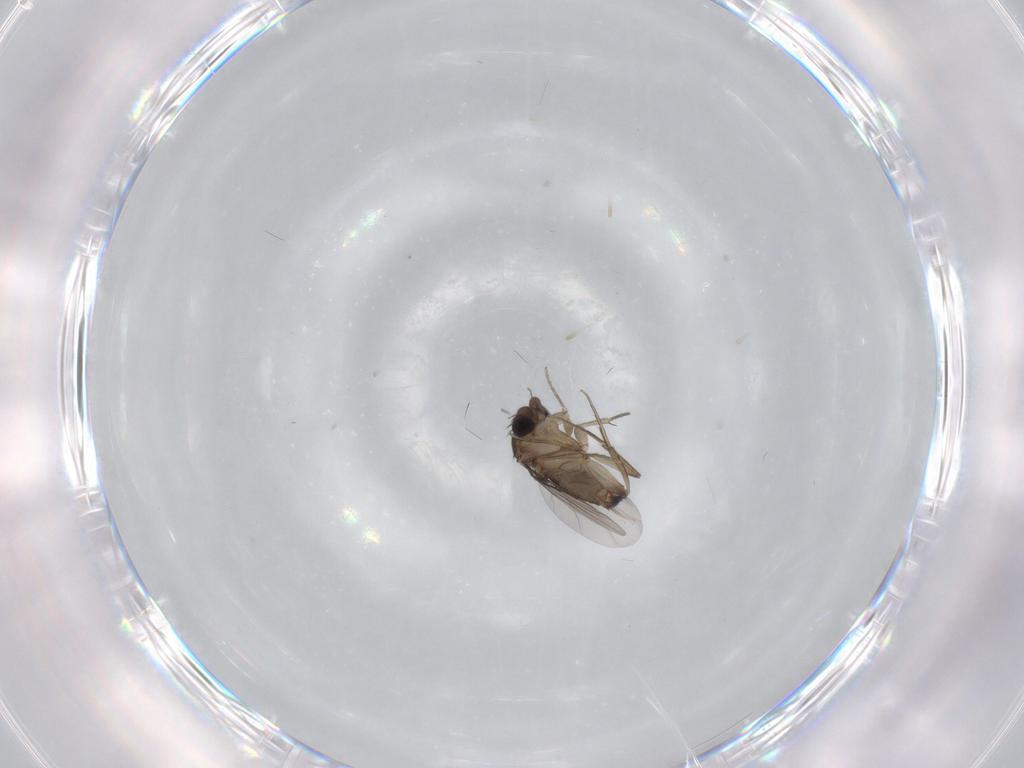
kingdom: Animalia
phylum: Arthropoda
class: Insecta
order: Diptera
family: Phoridae
